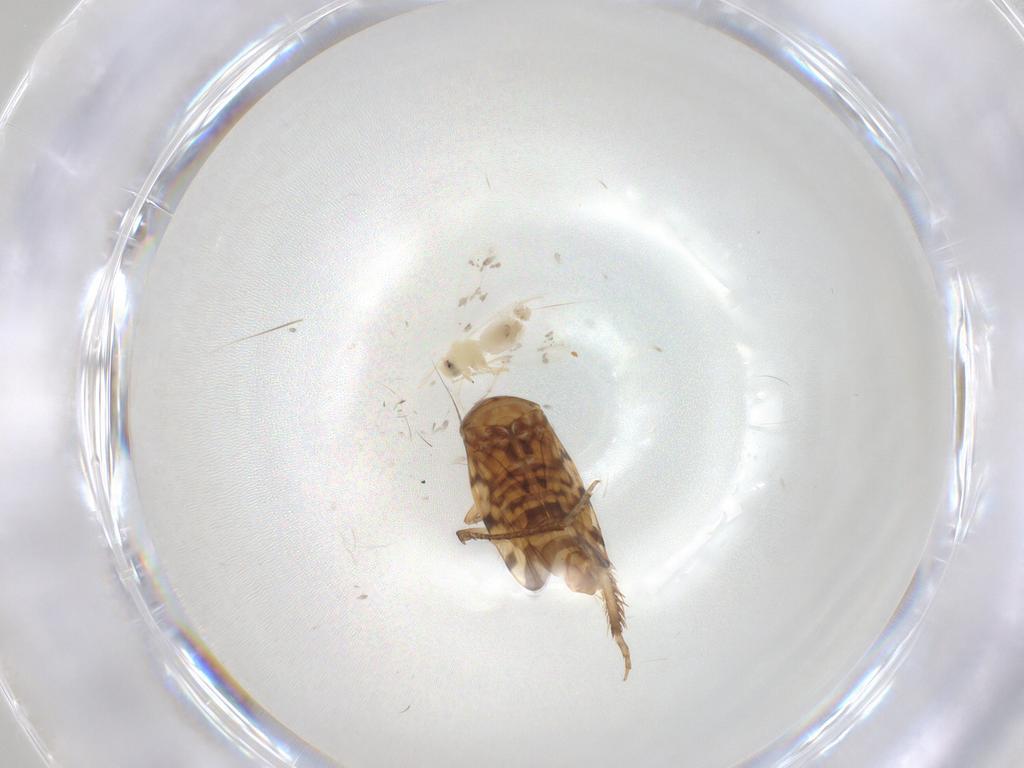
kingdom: Animalia
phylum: Arthropoda
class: Insecta
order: Hemiptera
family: Aleyrodidae
